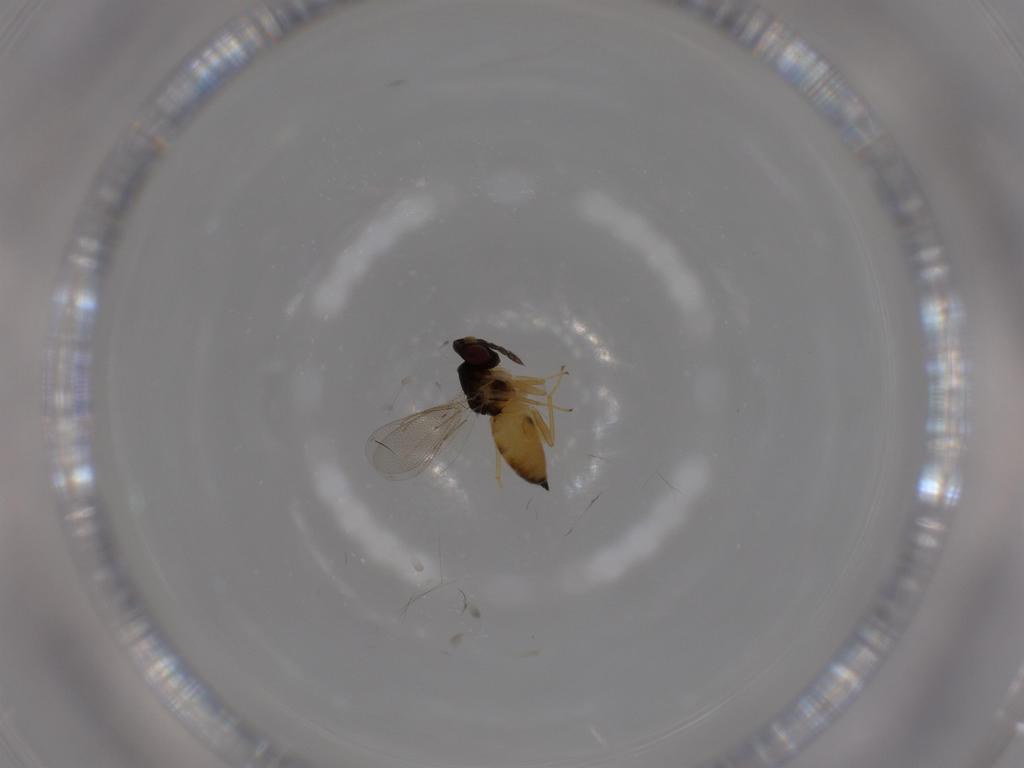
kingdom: Animalia
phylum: Arthropoda
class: Insecta
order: Hymenoptera
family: Eulophidae
